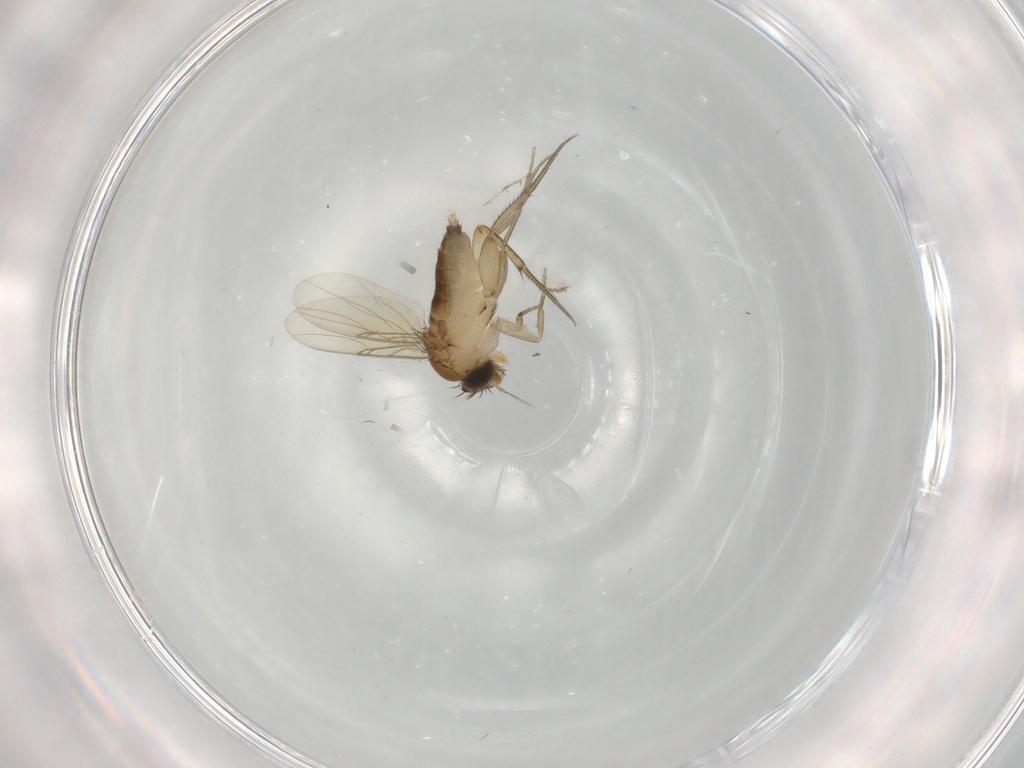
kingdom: Animalia
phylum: Arthropoda
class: Insecta
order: Diptera
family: Phoridae
